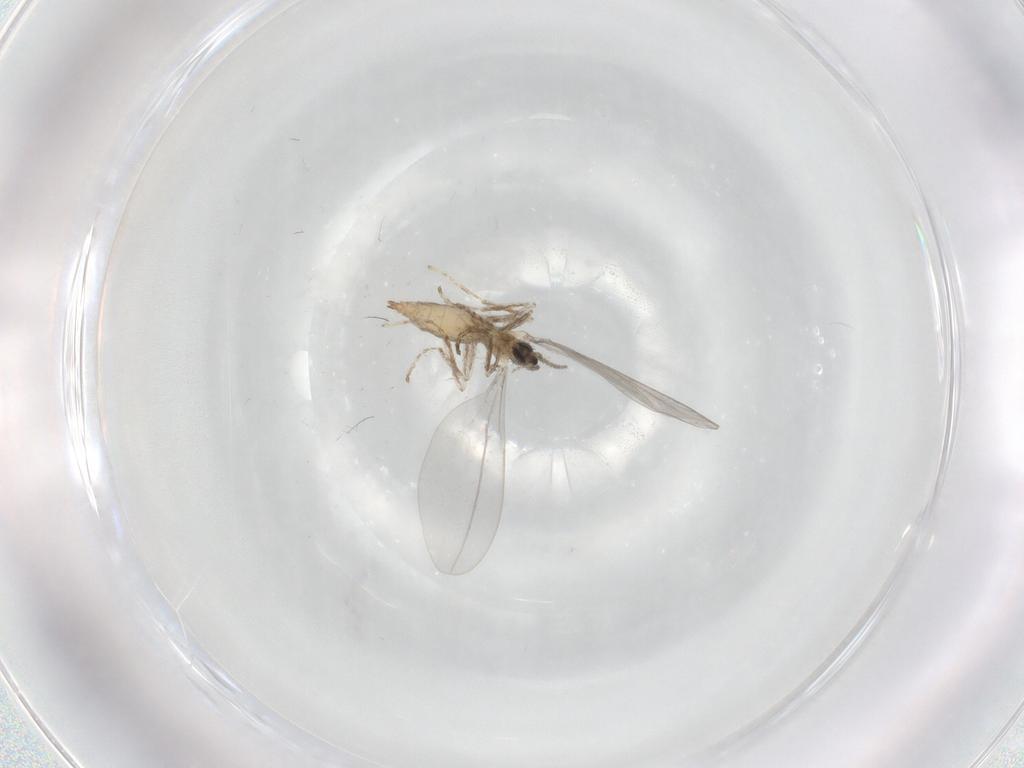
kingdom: Animalia
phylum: Arthropoda
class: Insecta
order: Diptera
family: Cecidomyiidae
